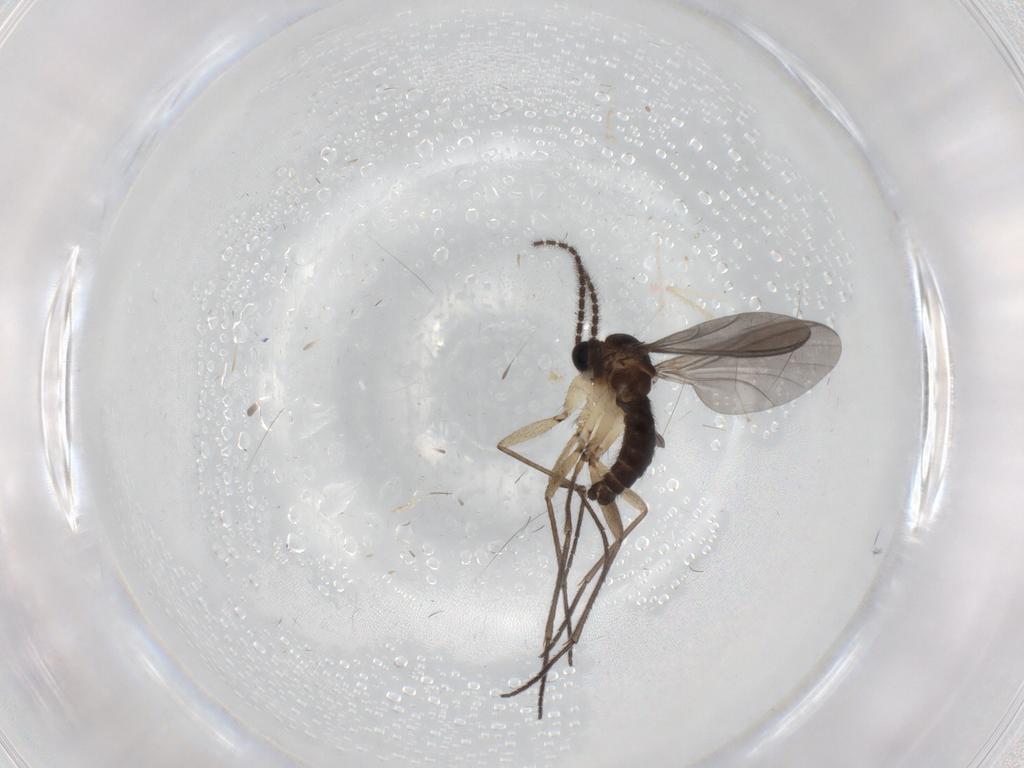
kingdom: Animalia
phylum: Arthropoda
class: Insecta
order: Diptera
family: Sciaridae
